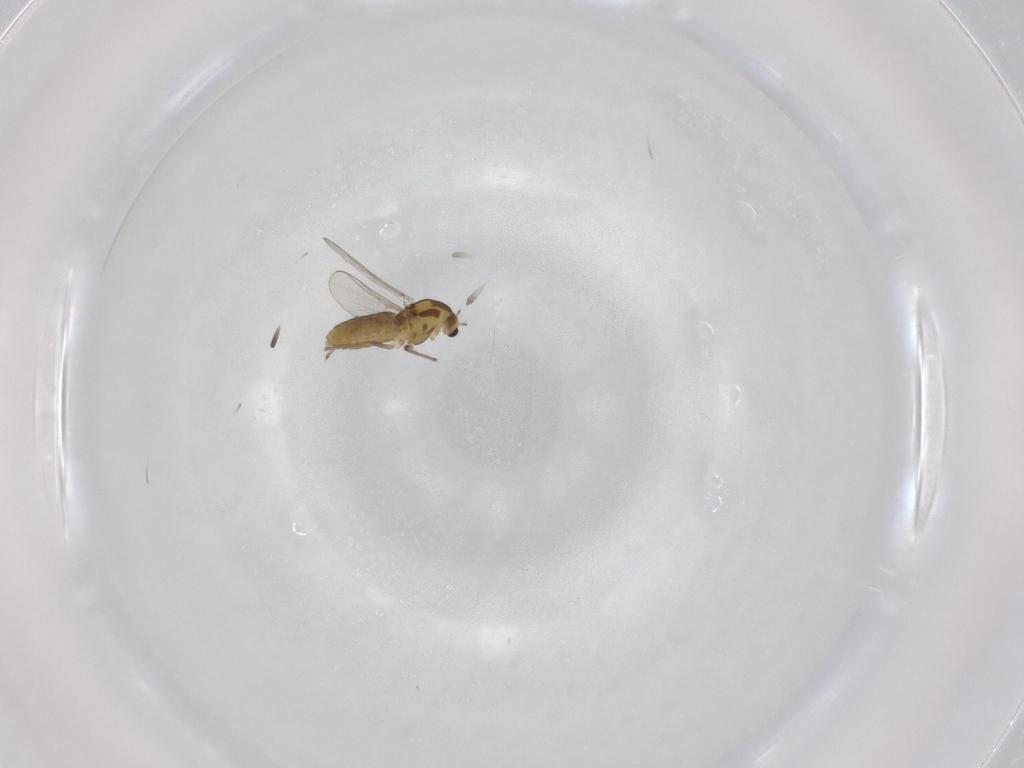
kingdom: Animalia
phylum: Arthropoda
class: Insecta
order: Diptera
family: Chironomidae
